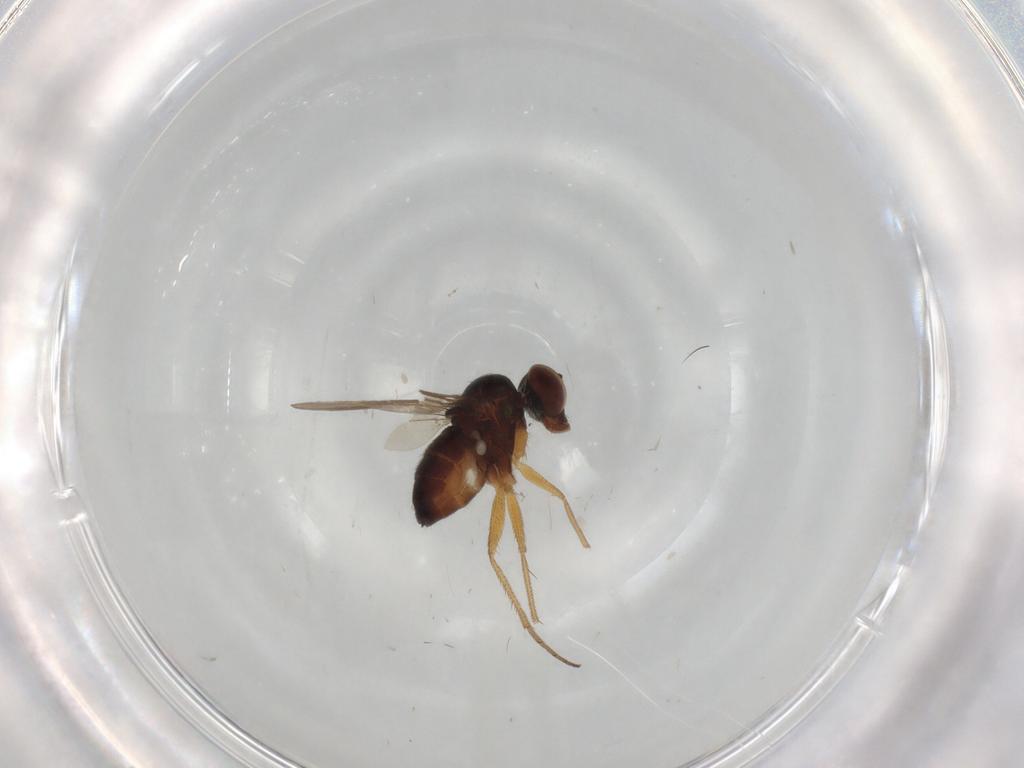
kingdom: Animalia
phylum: Arthropoda
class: Insecta
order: Diptera
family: Dolichopodidae
